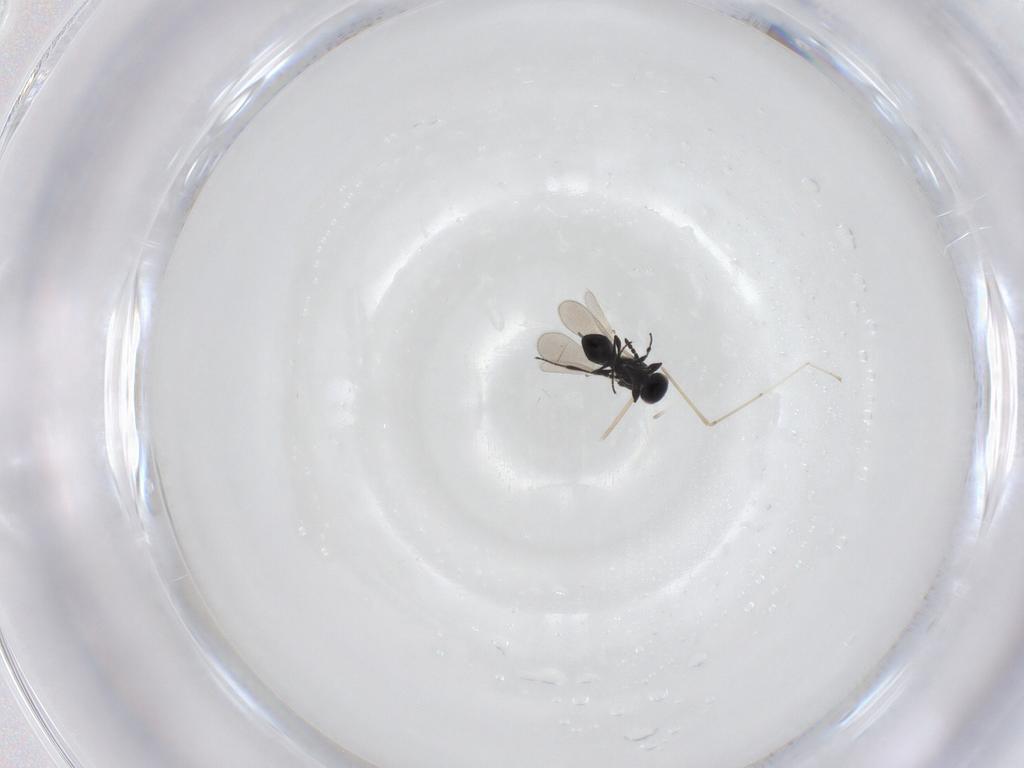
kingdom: Animalia
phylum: Arthropoda
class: Insecta
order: Hymenoptera
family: Platygastridae
